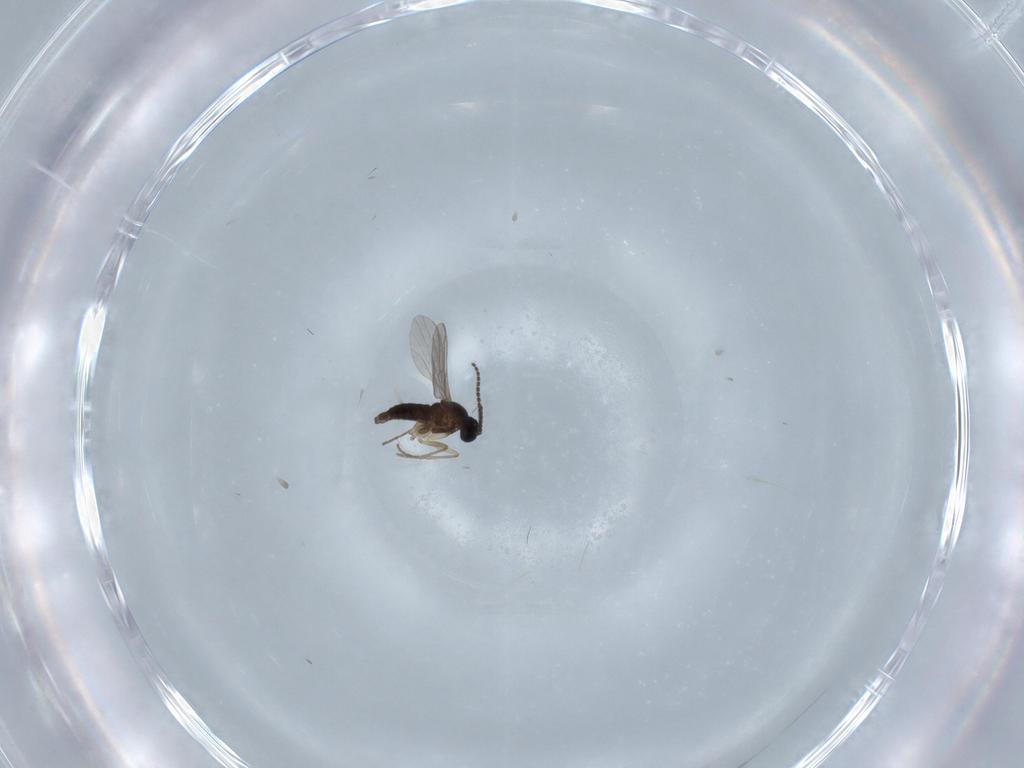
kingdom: Animalia
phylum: Arthropoda
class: Insecta
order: Diptera
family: Sciaridae
